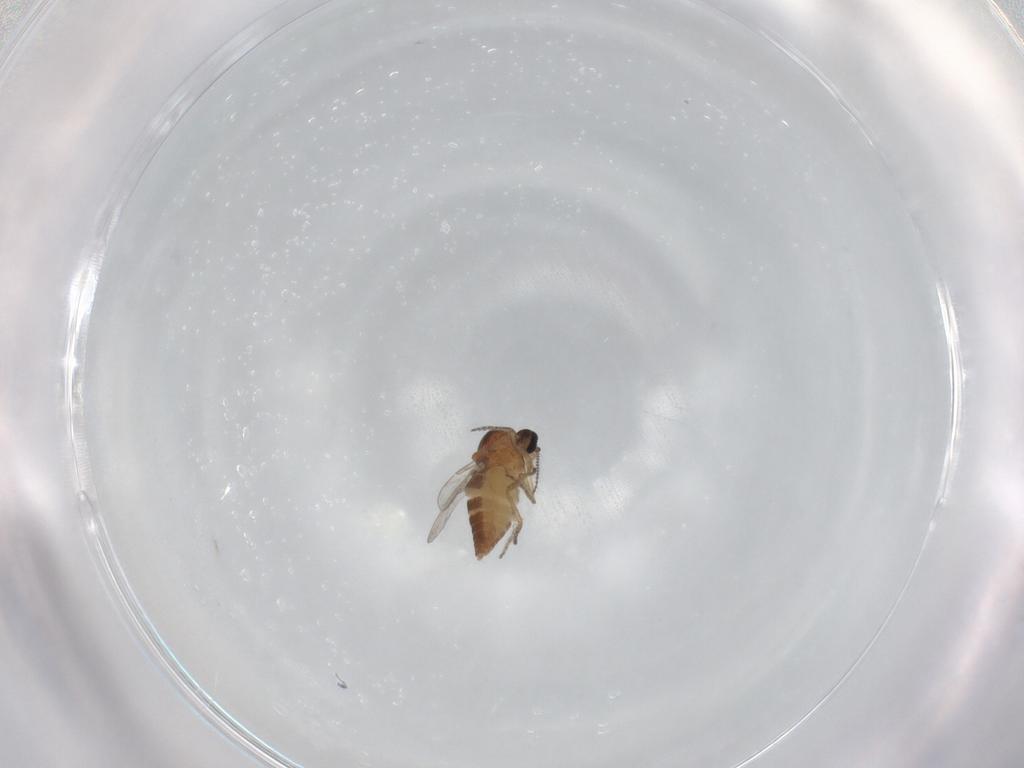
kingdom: Animalia
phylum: Arthropoda
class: Insecta
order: Diptera
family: Ceratopogonidae
